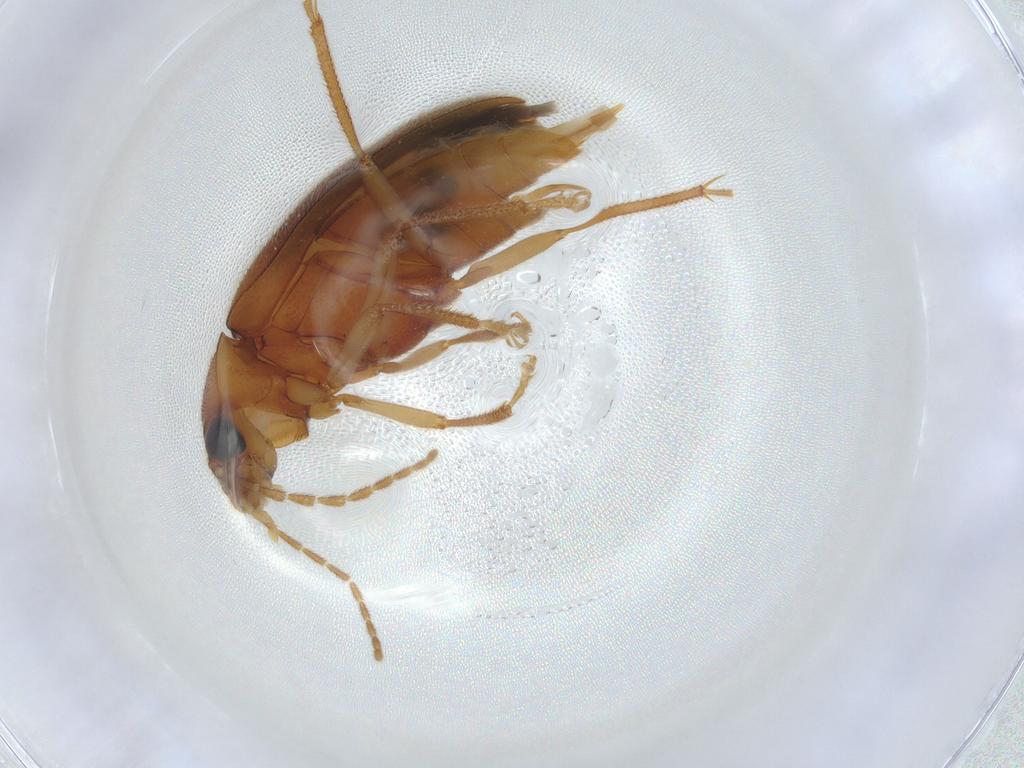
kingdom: Animalia
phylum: Arthropoda
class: Insecta
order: Coleoptera
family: Ptilodactylidae
